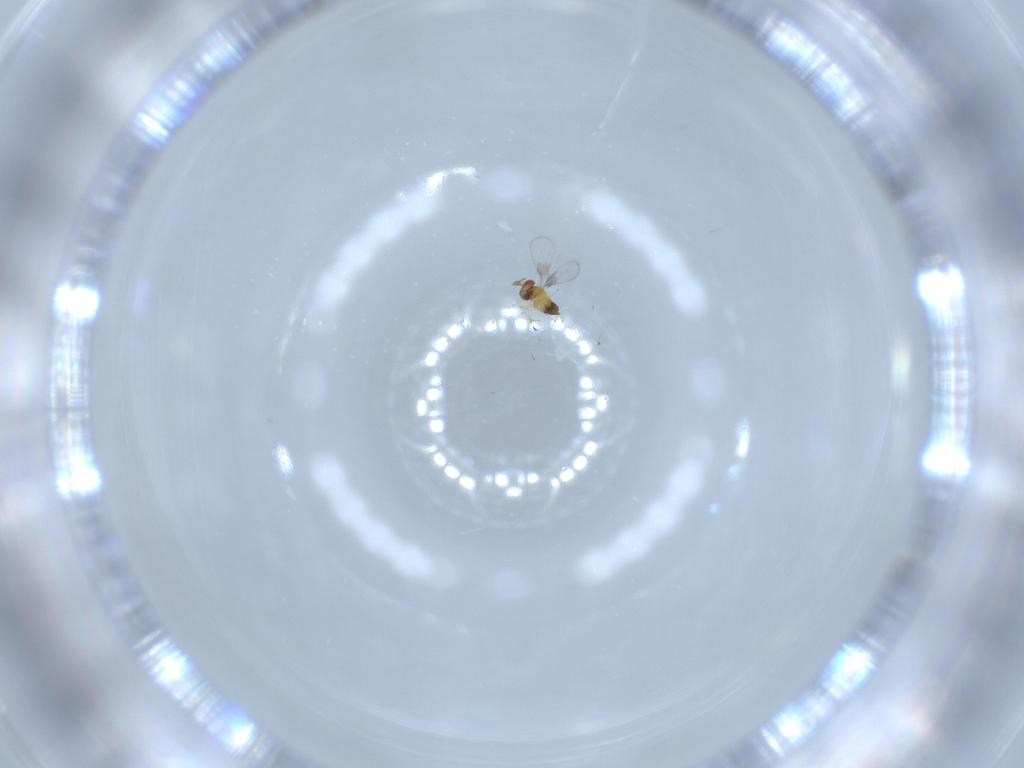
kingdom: Animalia
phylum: Arthropoda
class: Insecta
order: Hymenoptera
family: Trichogrammatidae
